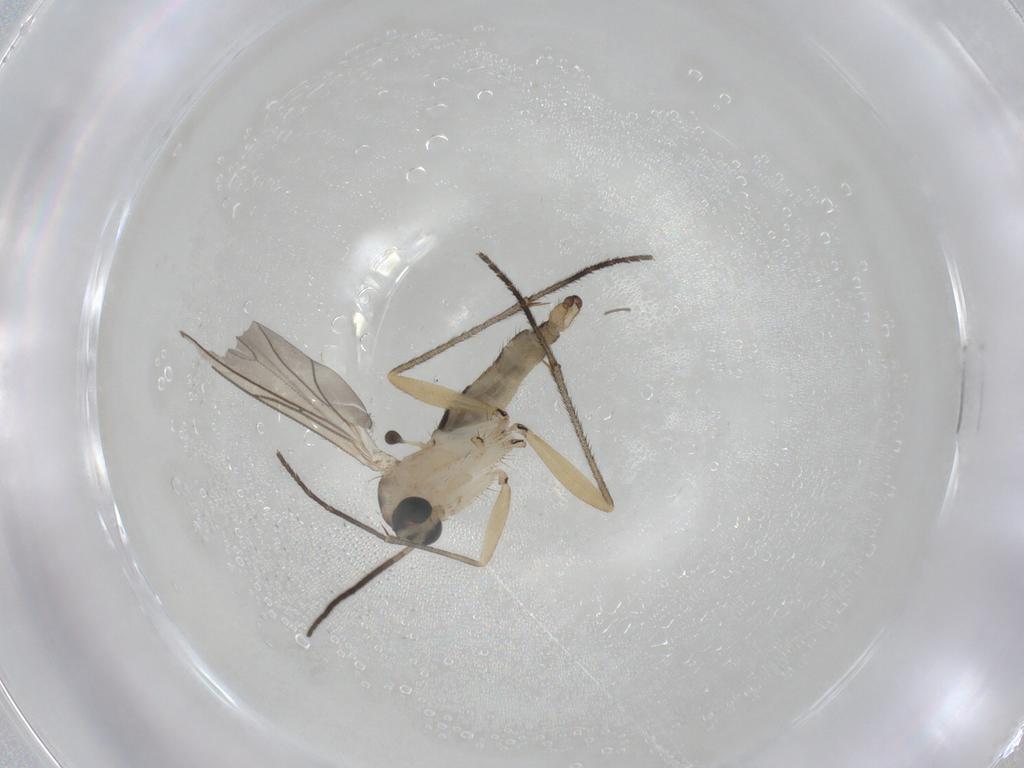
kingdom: Animalia
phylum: Arthropoda
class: Insecta
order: Diptera
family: Sciaridae
